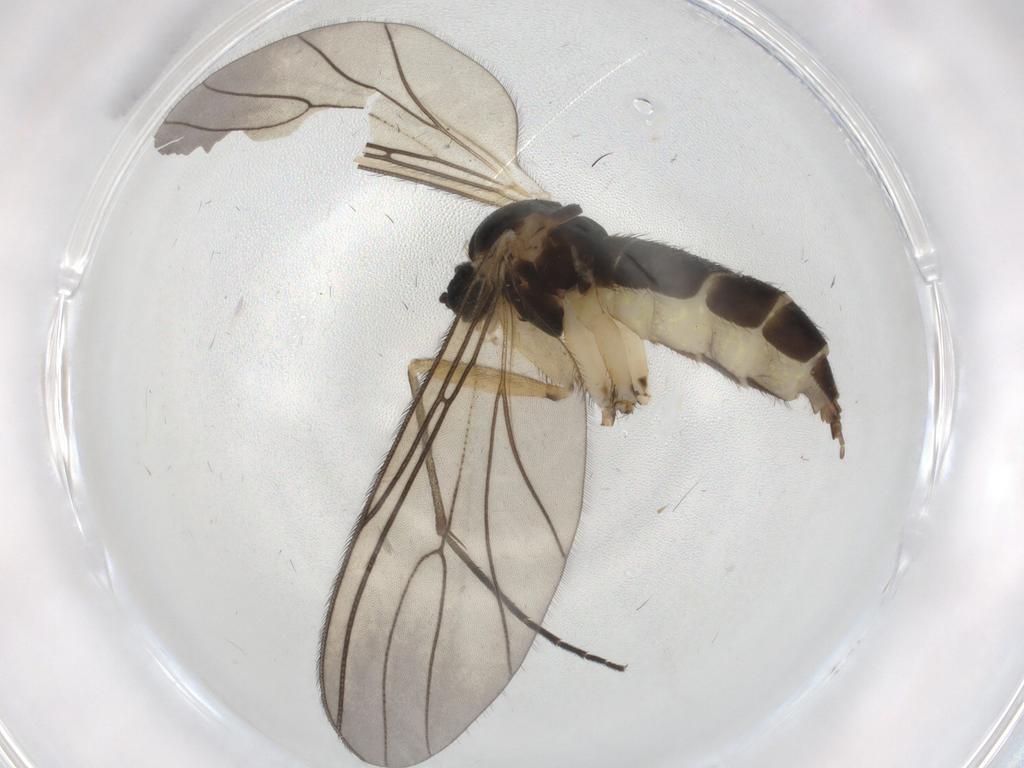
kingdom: Animalia
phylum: Arthropoda
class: Insecta
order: Diptera
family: Sciaridae
